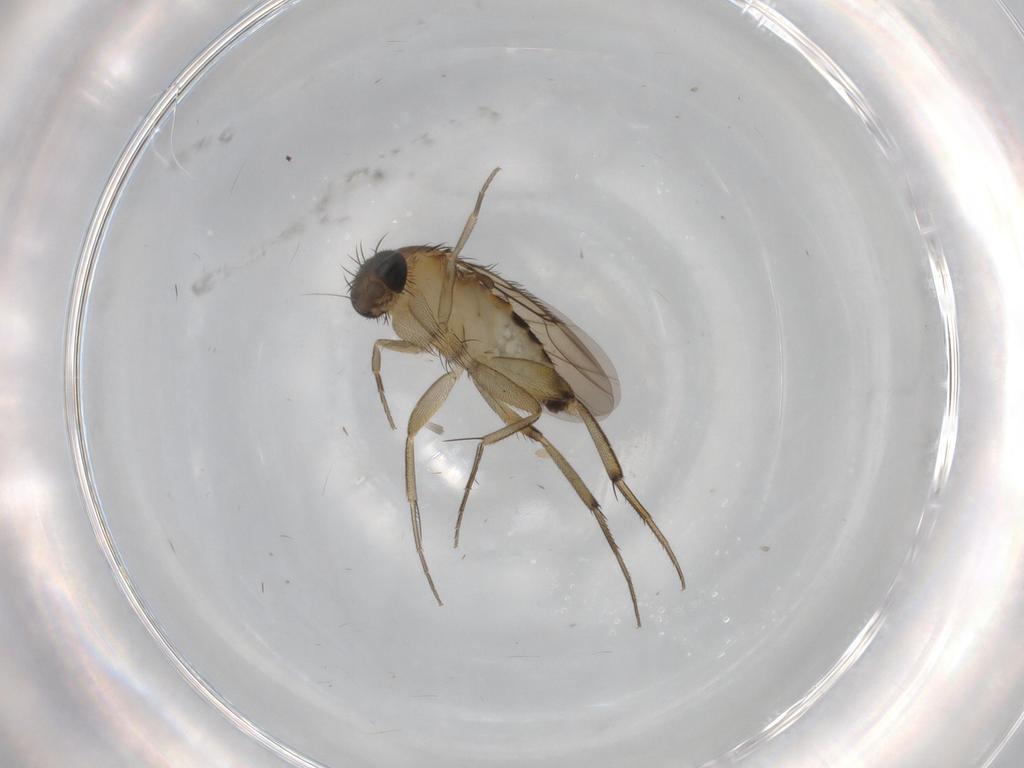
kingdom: Animalia
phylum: Arthropoda
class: Insecta
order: Diptera
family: Phoridae
